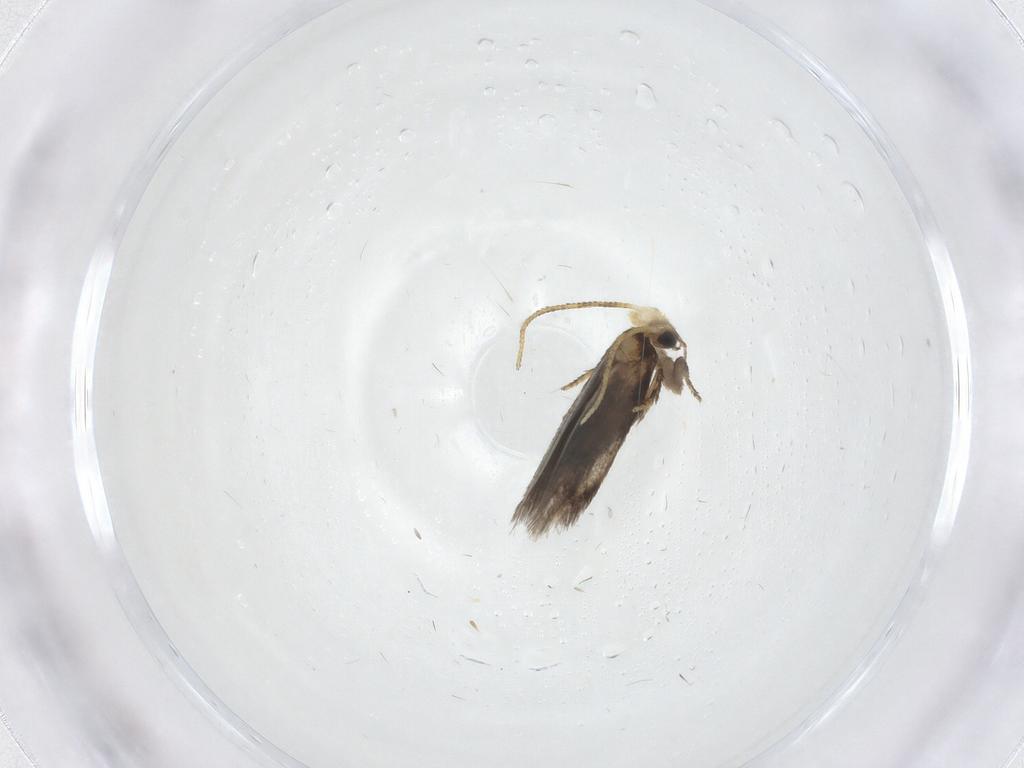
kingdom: Animalia
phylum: Arthropoda
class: Insecta
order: Lepidoptera
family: Nepticulidae
